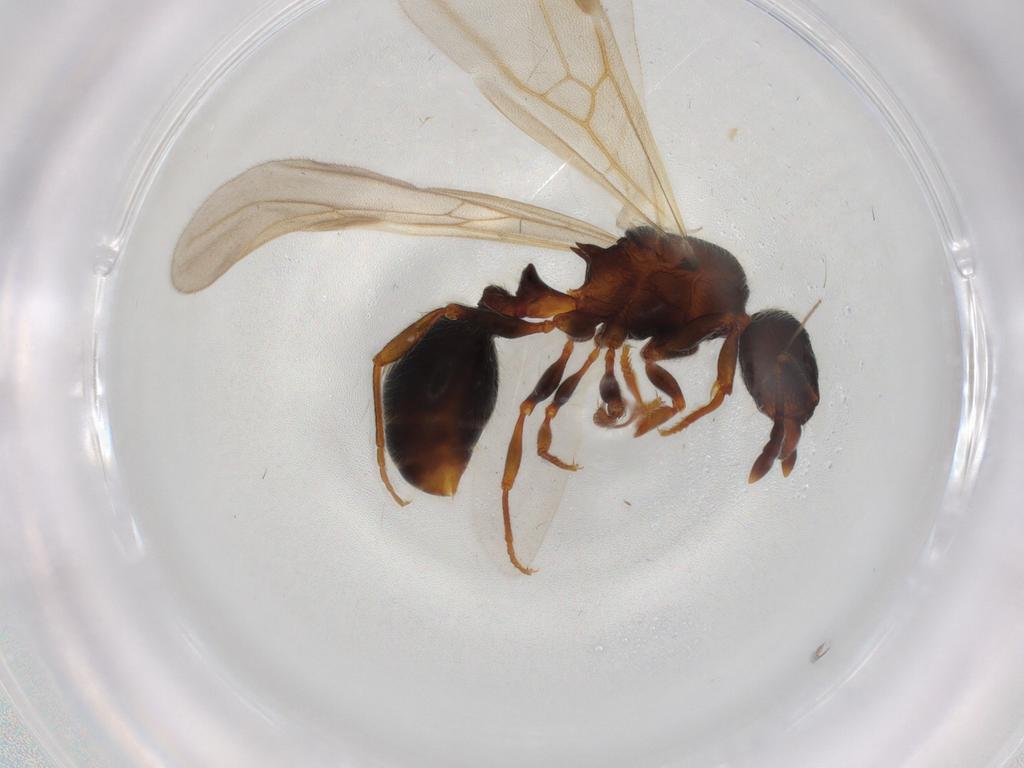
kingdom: Animalia
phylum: Arthropoda
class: Insecta
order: Hymenoptera
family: Formicidae
